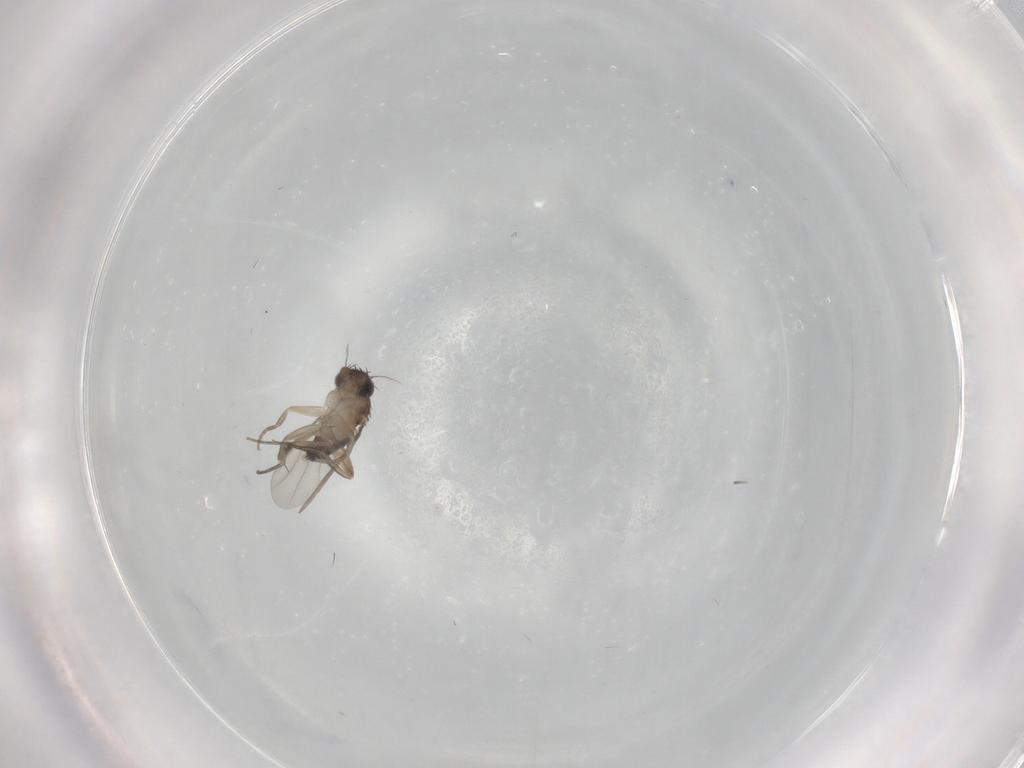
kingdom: Animalia
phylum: Arthropoda
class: Insecta
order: Diptera
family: Phoridae
